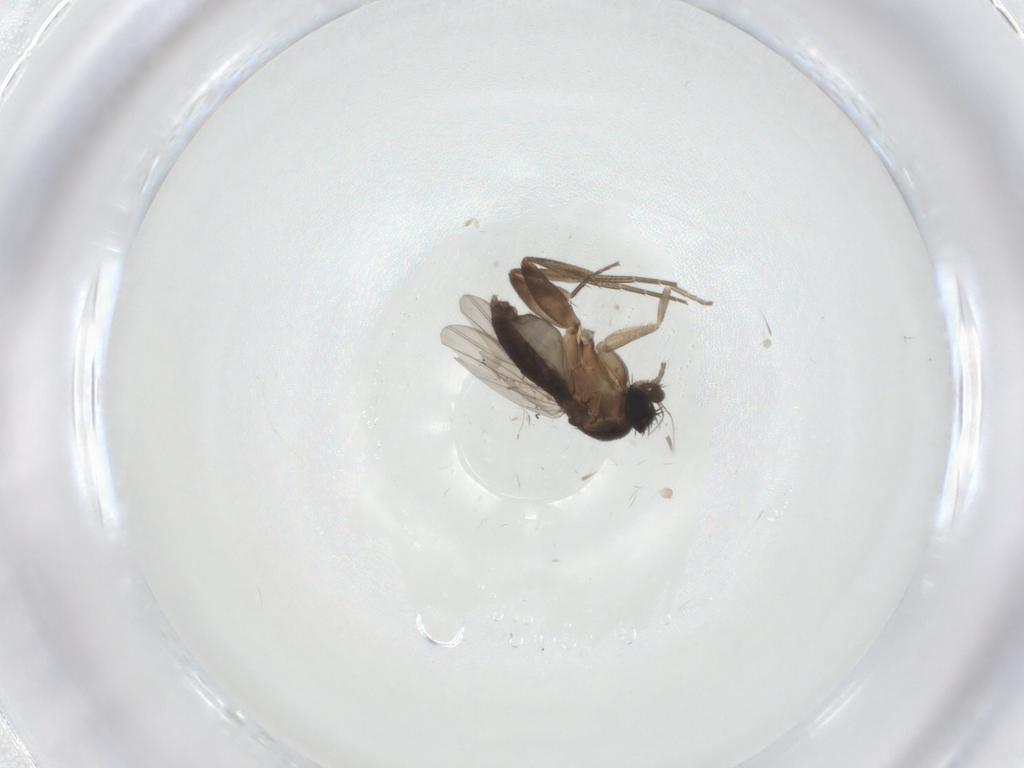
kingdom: Animalia
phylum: Arthropoda
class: Insecta
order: Diptera
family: Phoridae
